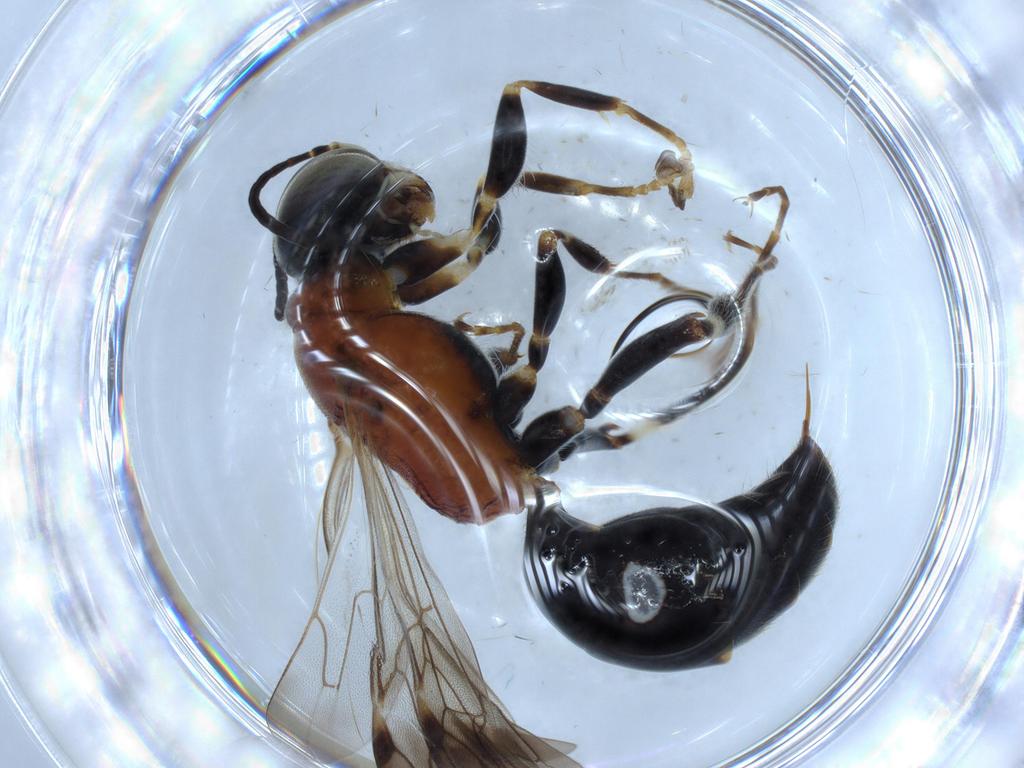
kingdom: Animalia
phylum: Arthropoda
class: Insecta
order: Hymenoptera
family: Bembicidae
